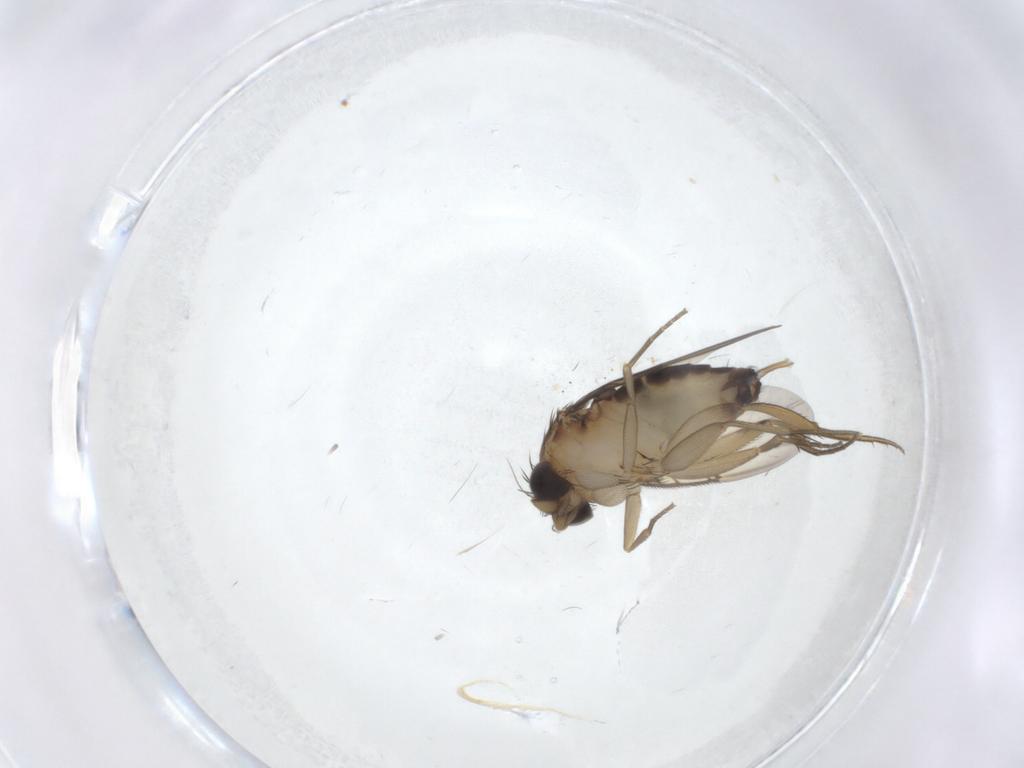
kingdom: Animalia
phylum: Arthropoda
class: Insecta
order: Diptera
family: Phoridae
